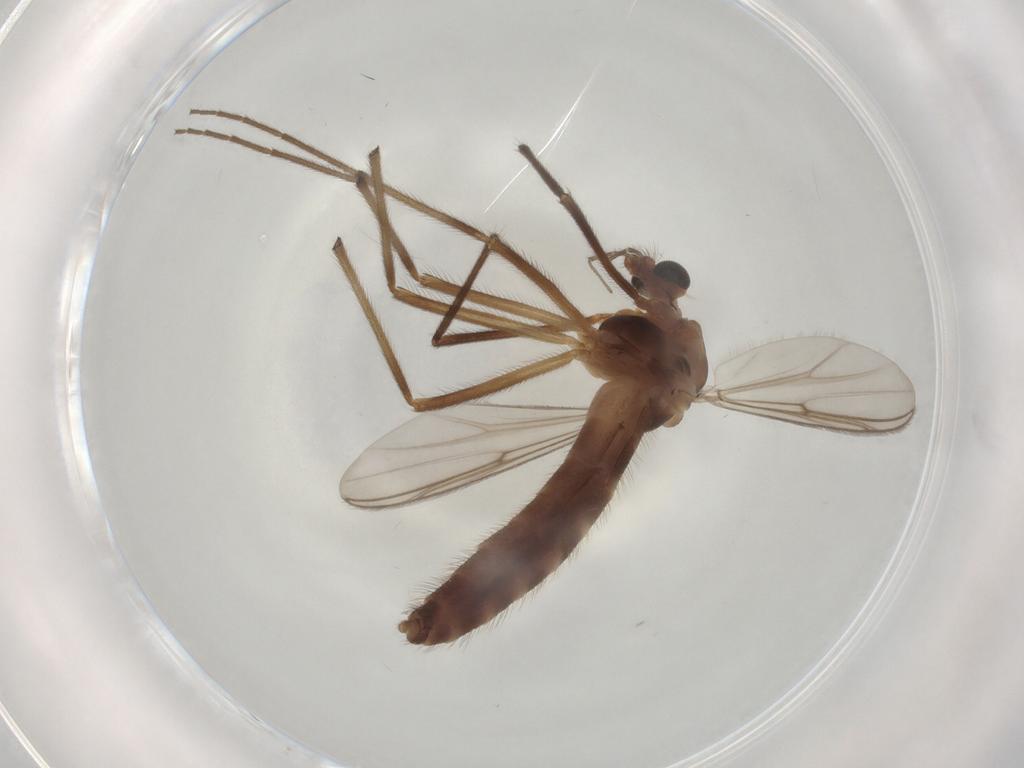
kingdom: Animalia
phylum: Arthropoda
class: Insecta
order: Diptera
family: Chironomidae
